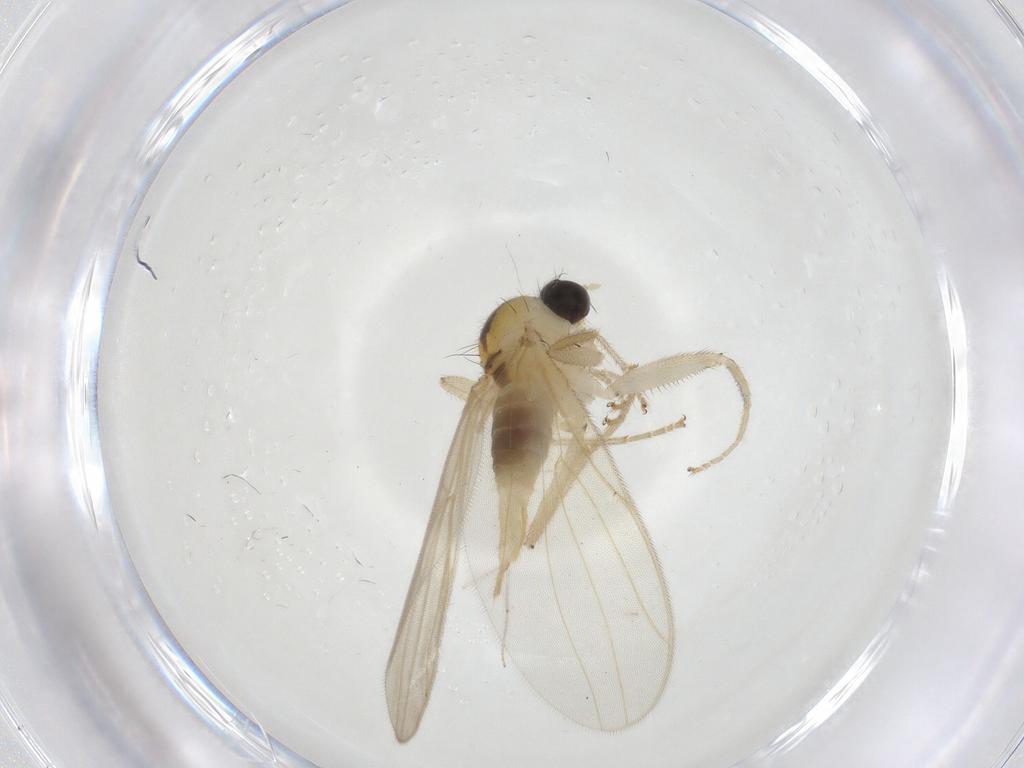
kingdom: Animalia
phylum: Arthropoda
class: Insecta
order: Diptera
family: Hybotidae
